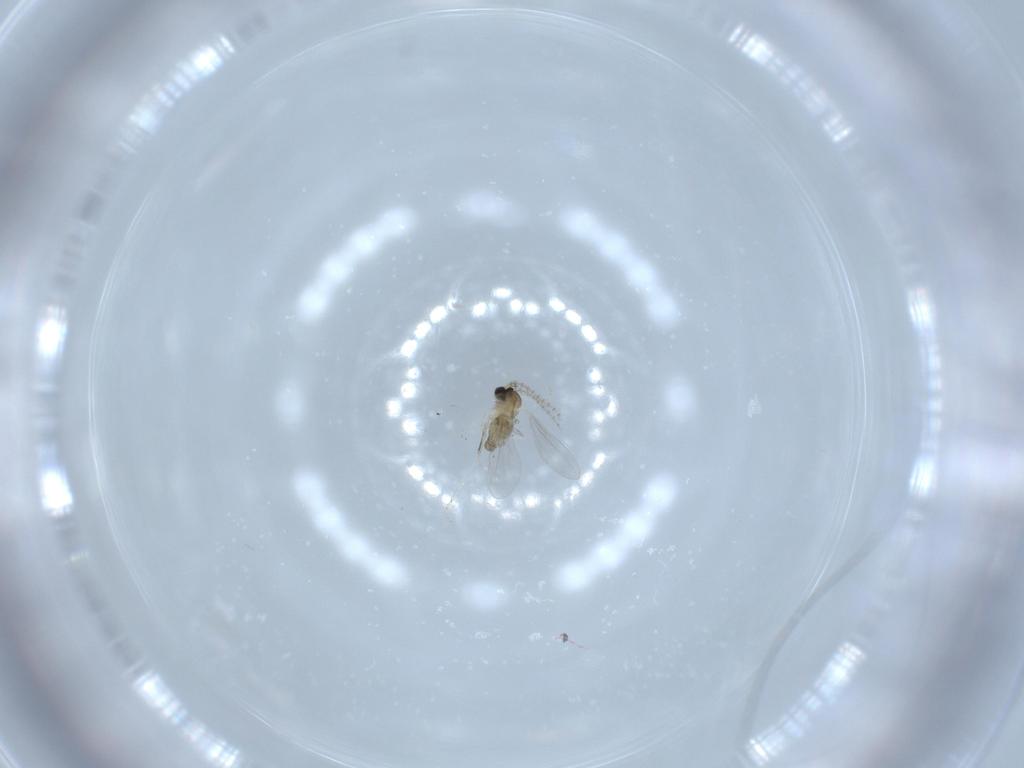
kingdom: Animalia
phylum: Arthropoda
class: Insecta
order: Diptera
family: Cecidomyiidae
